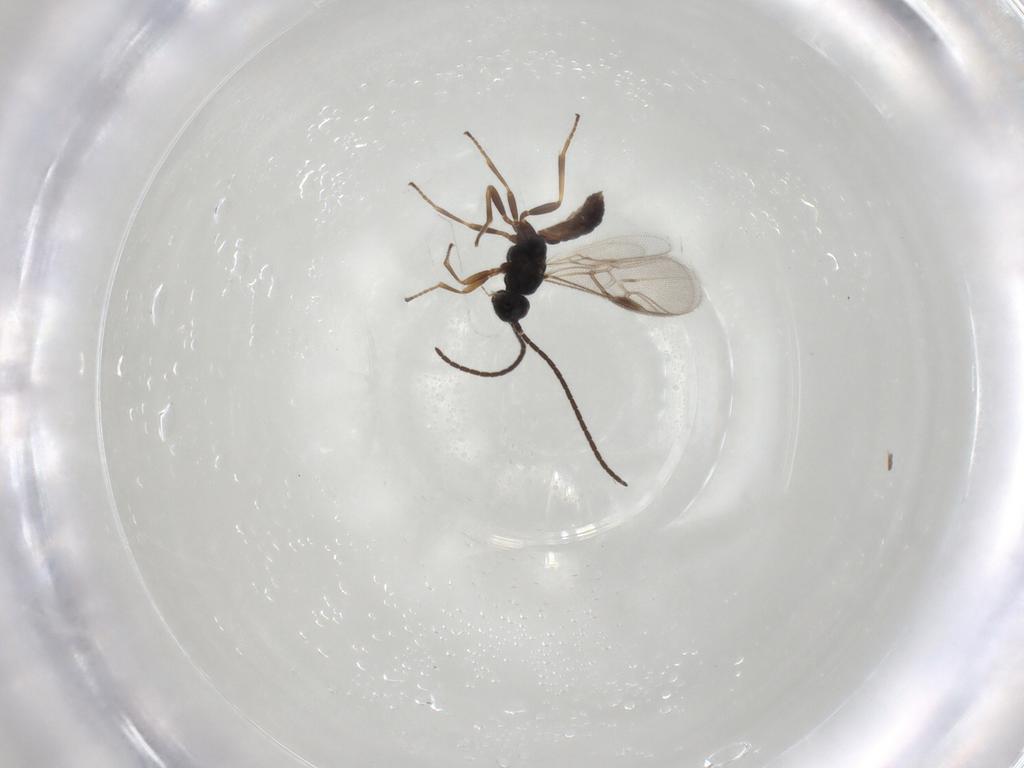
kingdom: Animalia
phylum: Arthropoda
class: Insecta
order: Hymenoptera
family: Braconidae
